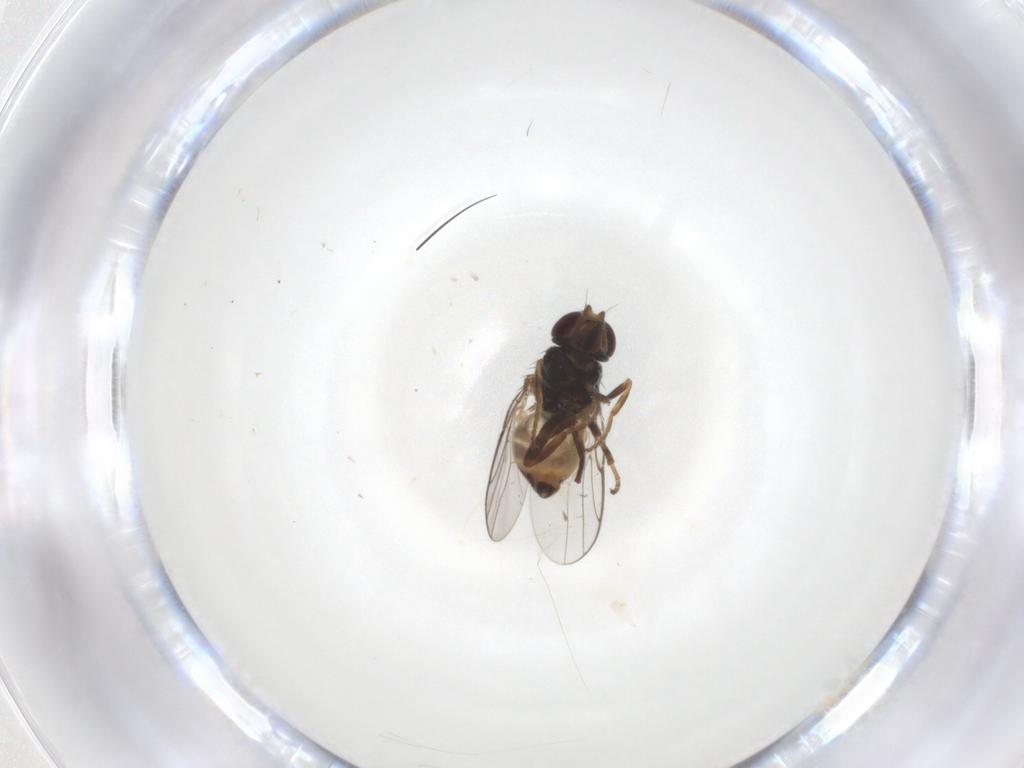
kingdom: Animalia
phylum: Arthropoda
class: Insecta
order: Diptera
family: Chloropidae
